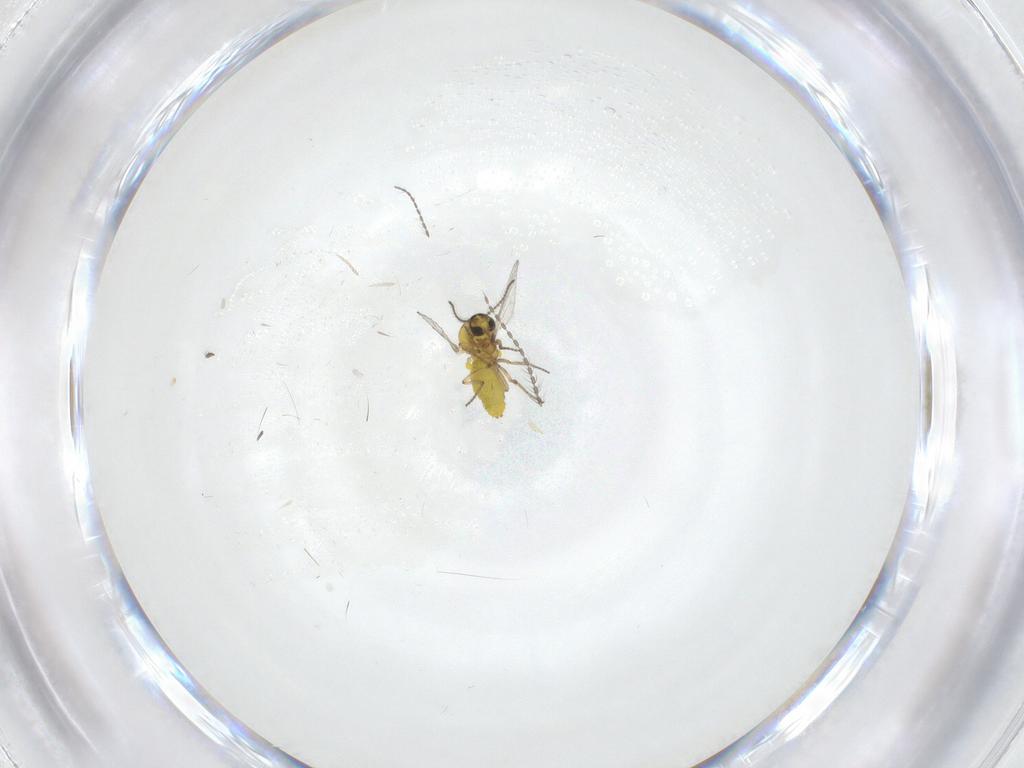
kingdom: Animalia
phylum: Arthropoda
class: Insecta
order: Diptera
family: Ceratopogonidae
